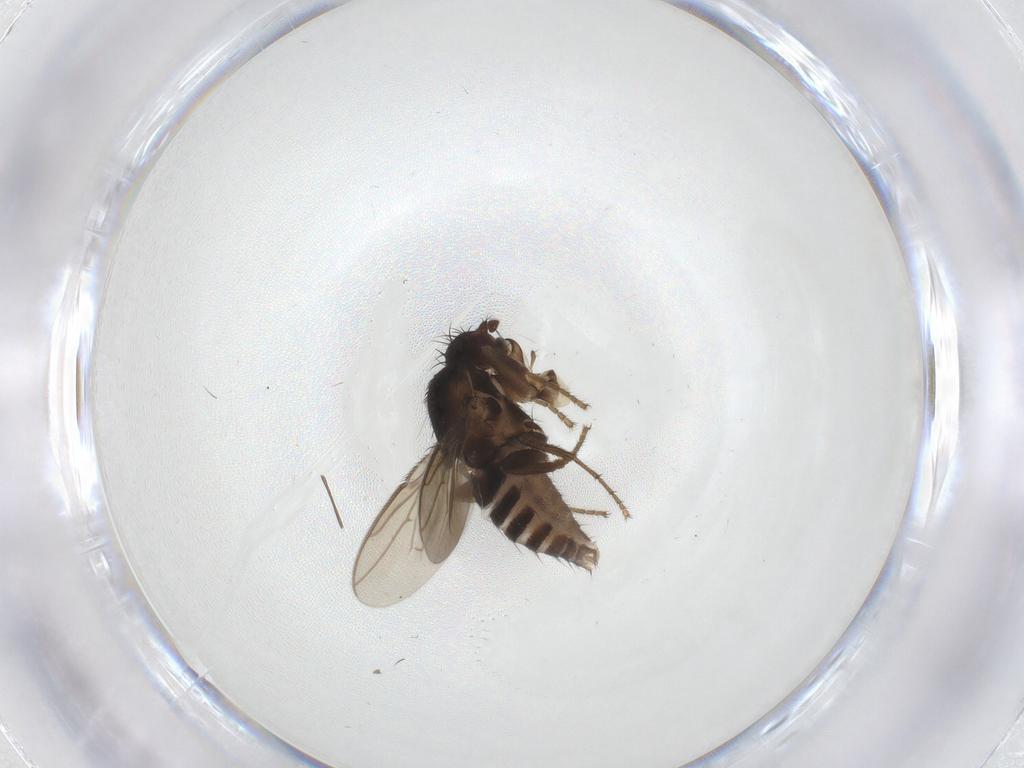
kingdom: Animalia
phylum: Arthropoda
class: Insecta
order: Diptera
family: Sphaeroceridae
